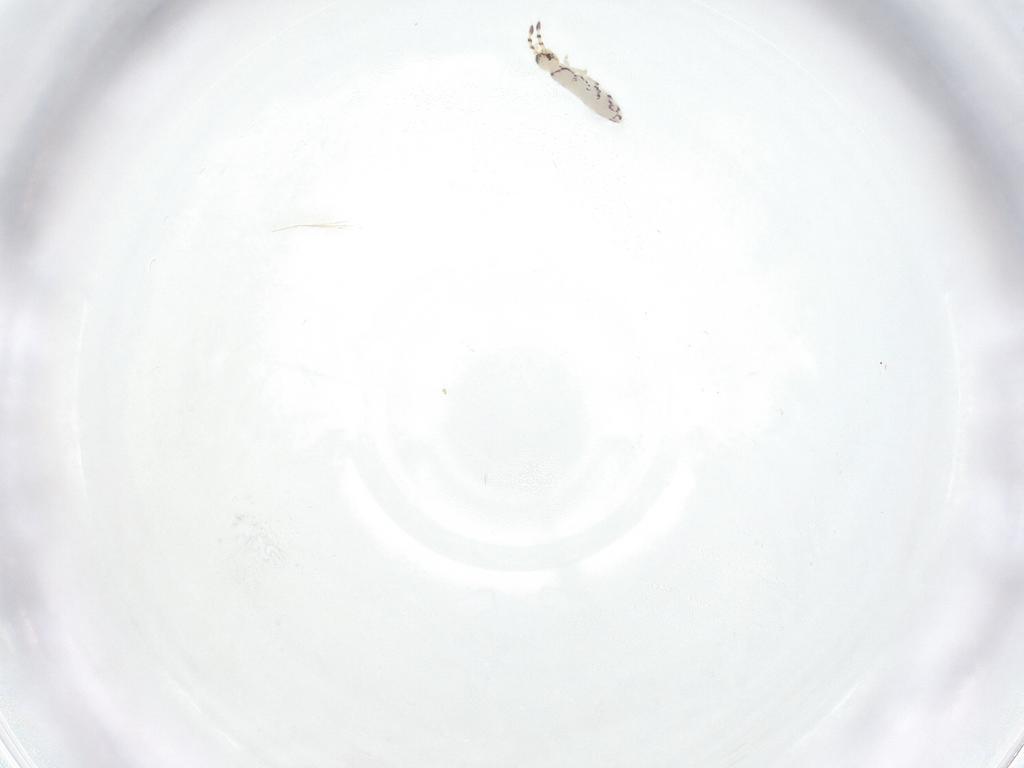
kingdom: Animalia
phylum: Arthropoda
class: Collembola
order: Entomobryomorpha
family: Isotomidae
